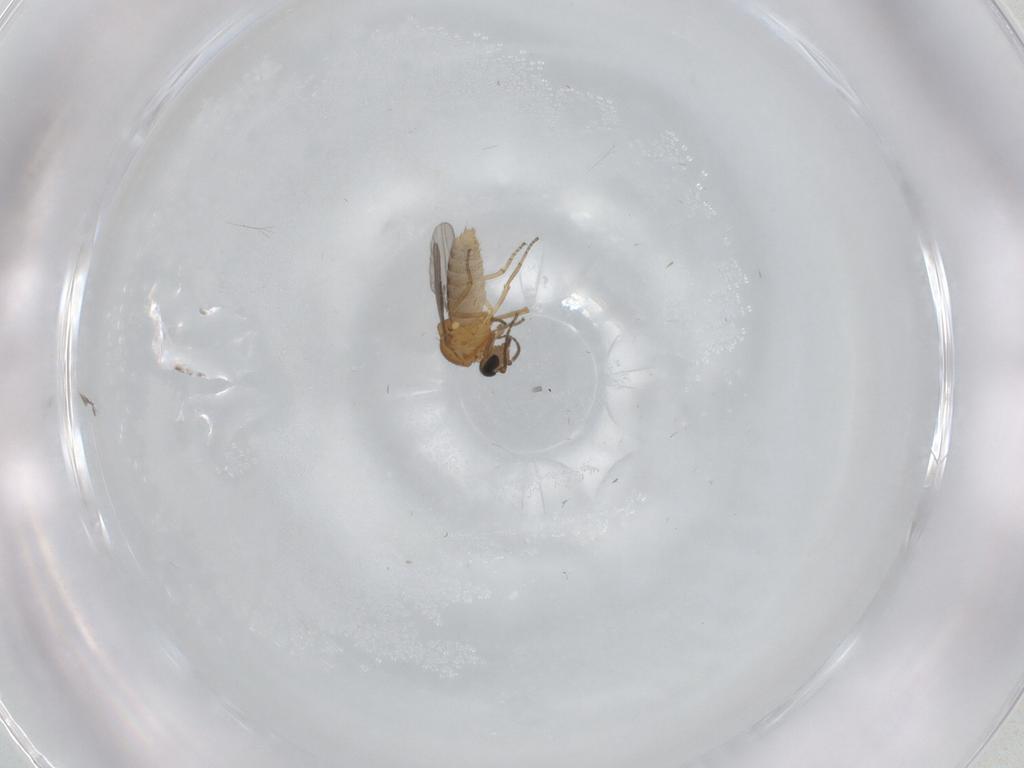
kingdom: Animalia
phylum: Arthropoda
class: Insecta
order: Diptera
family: Ceratopogonidae
